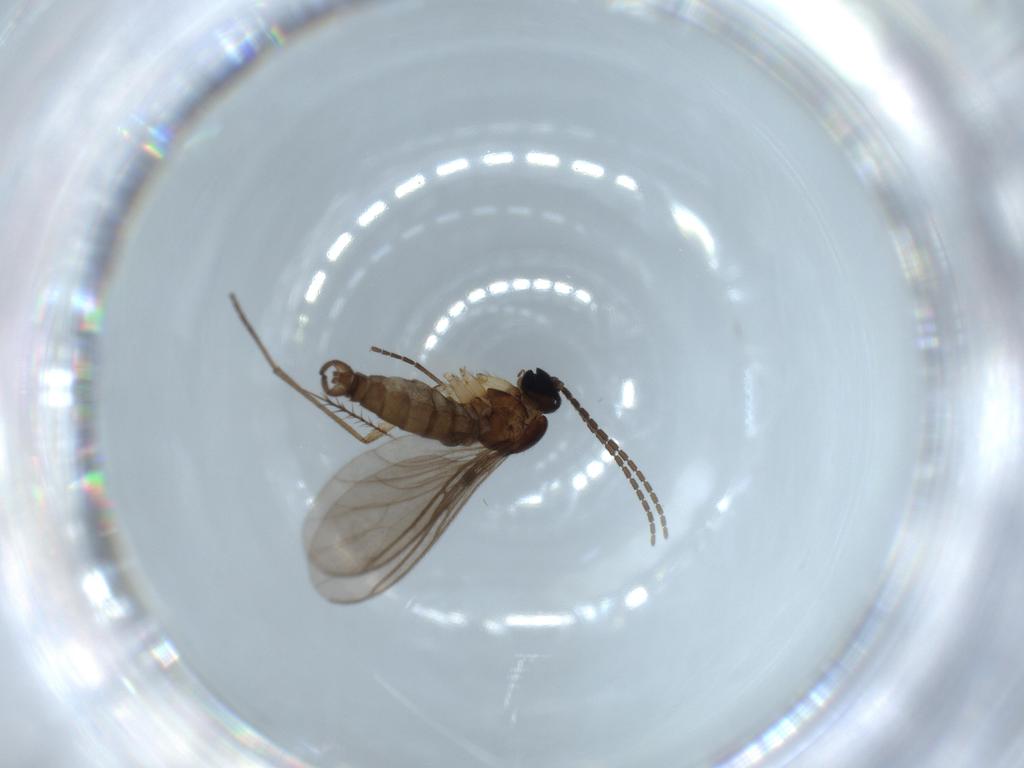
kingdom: Animalia
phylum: Arthropoda
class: Insecta
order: Diptera
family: Sciaridae
